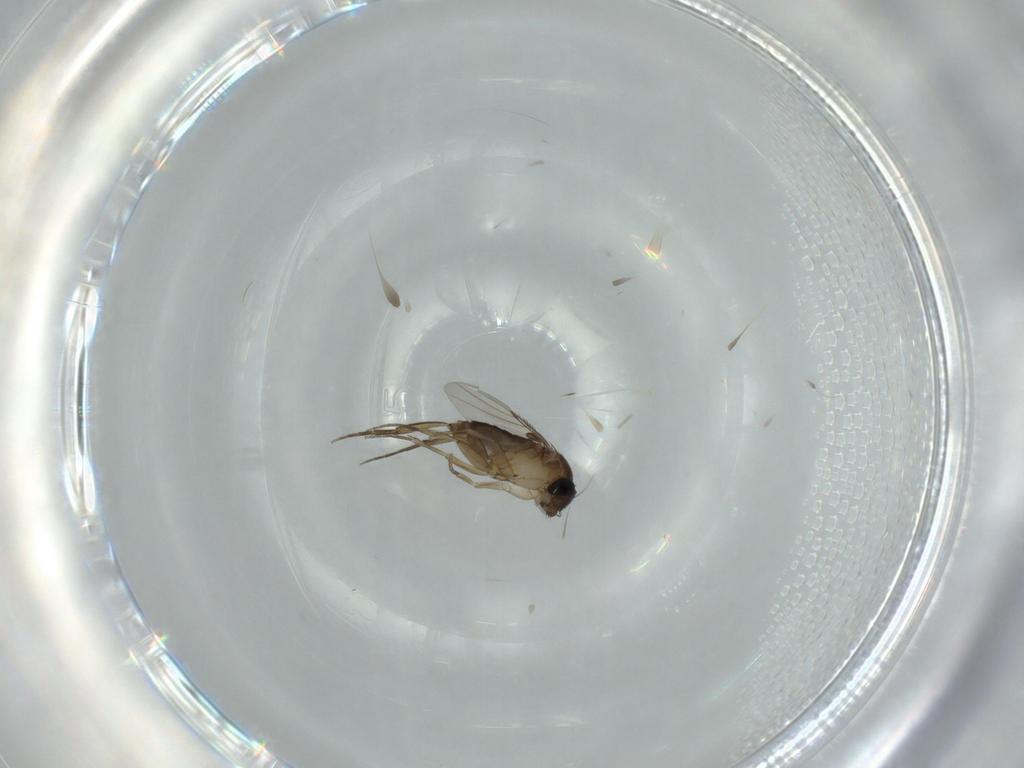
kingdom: Animalia
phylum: Arthropoda
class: Insecta
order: Diptera
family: Phoridae
